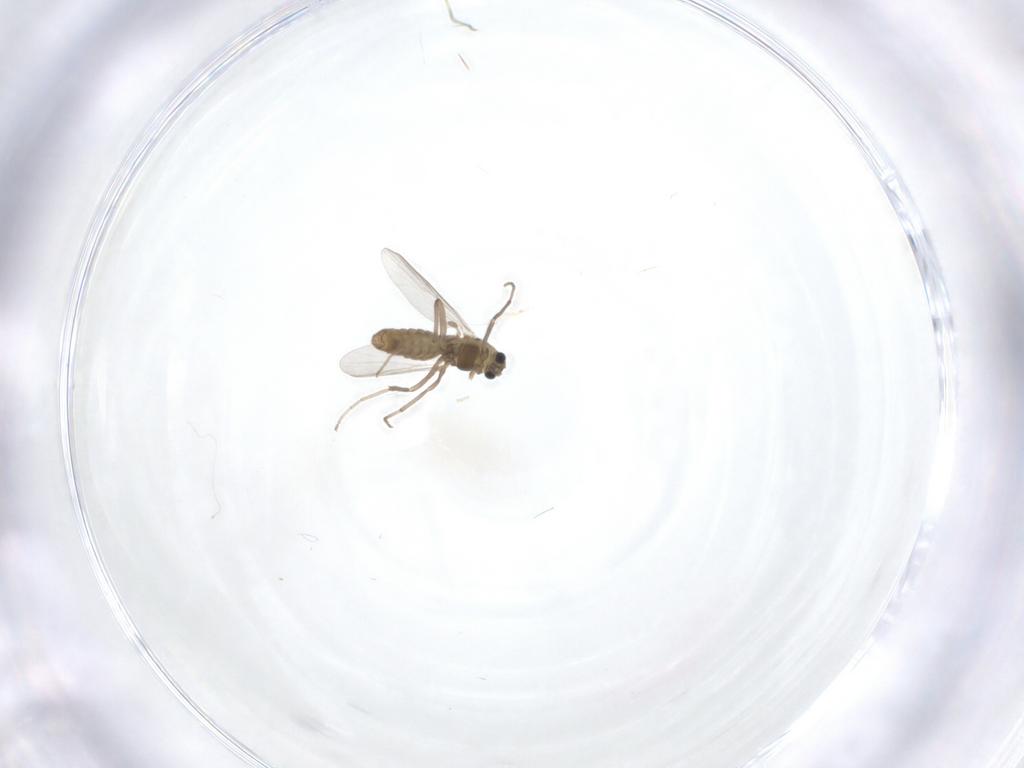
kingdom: Animalia
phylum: Arthropoda
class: Insecta
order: Diptera
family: Chironomidae
